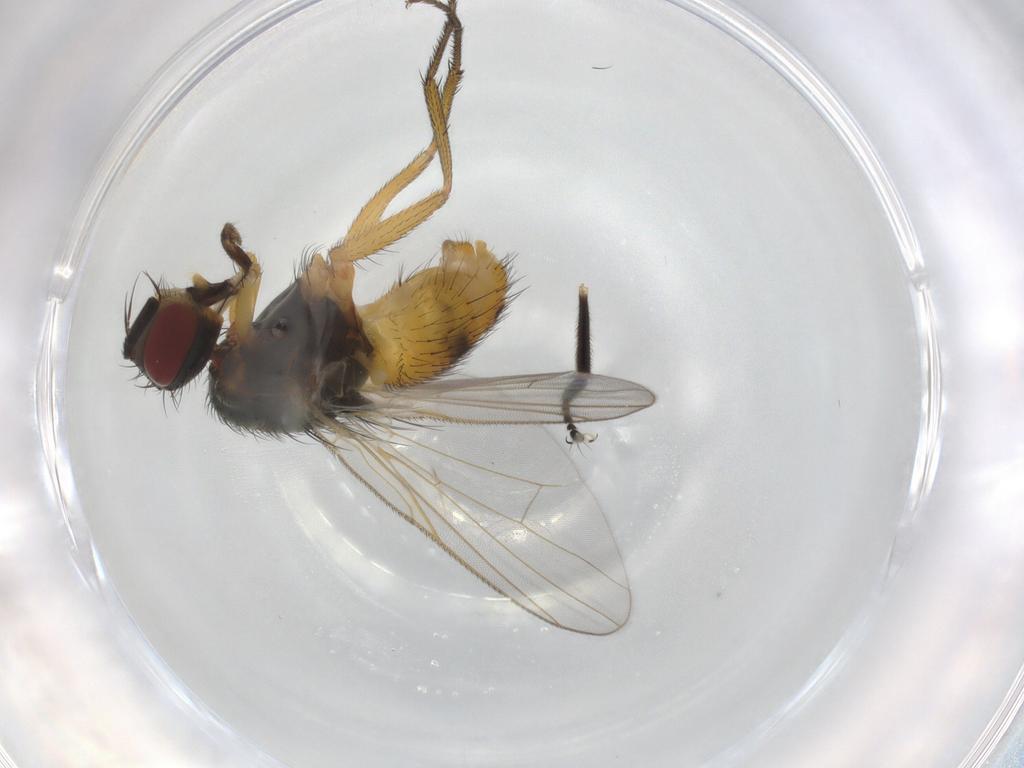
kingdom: Animalia
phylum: Arthropoda
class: Insecta
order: Diptera
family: Muscidae
